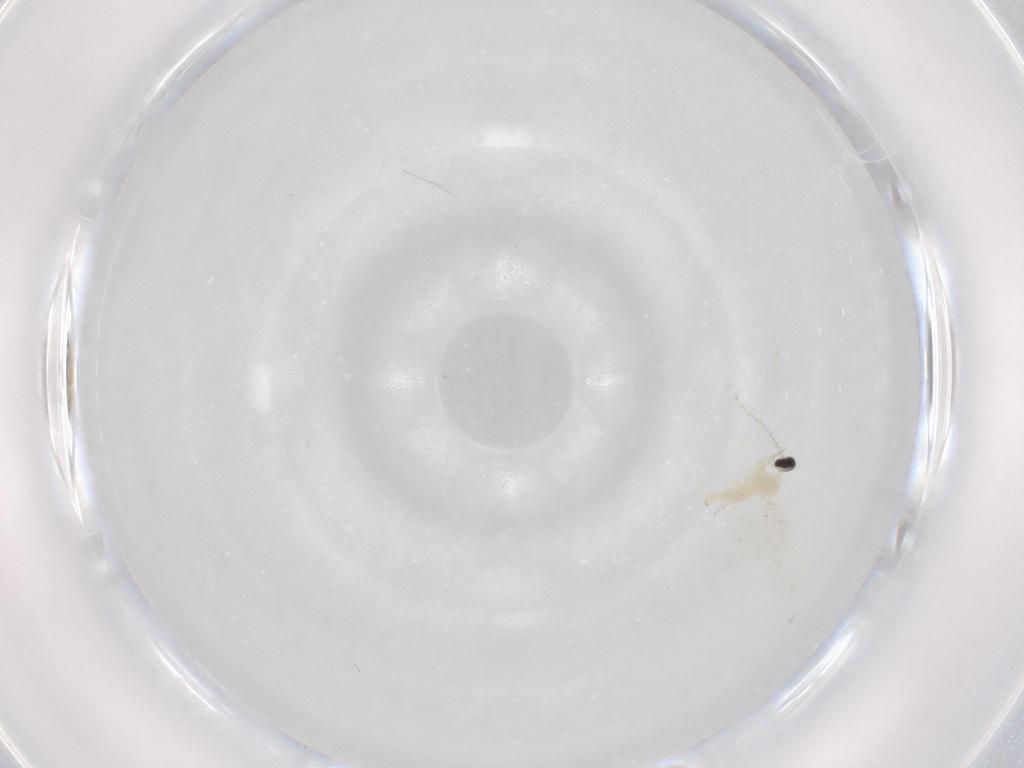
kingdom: Animalia
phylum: Arthropoda
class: Insecta
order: Diptera
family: Cecidomyiidae
